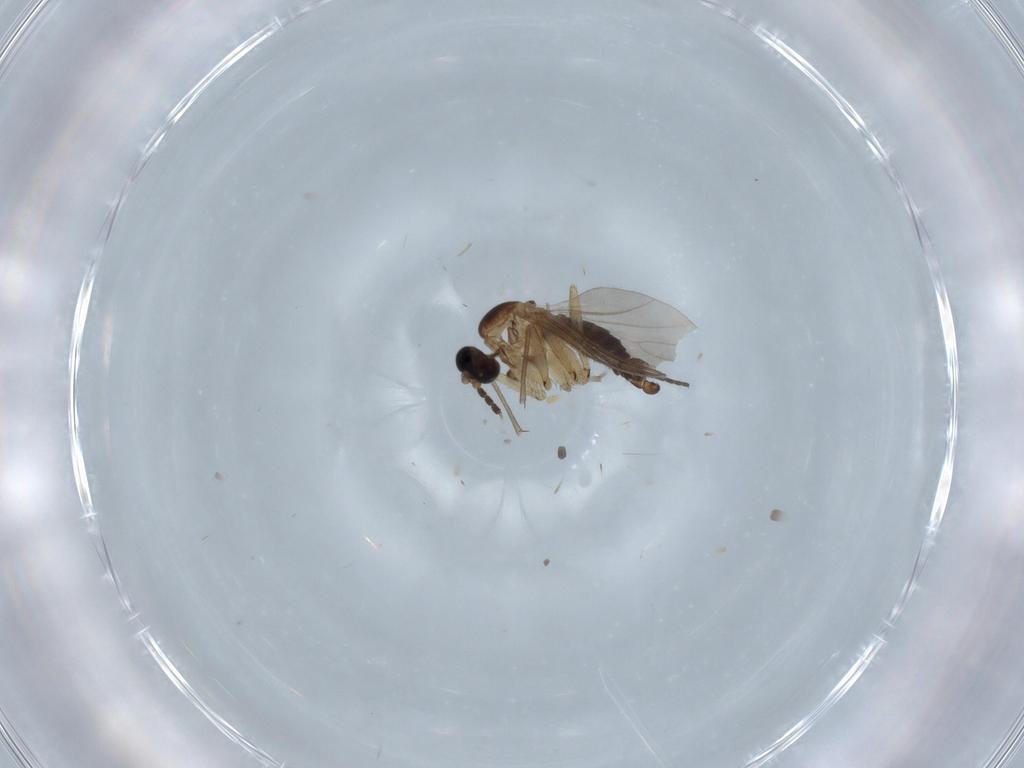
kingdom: Animalia
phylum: Arthropoda
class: Insecta
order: Diptera
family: Sciaridae
